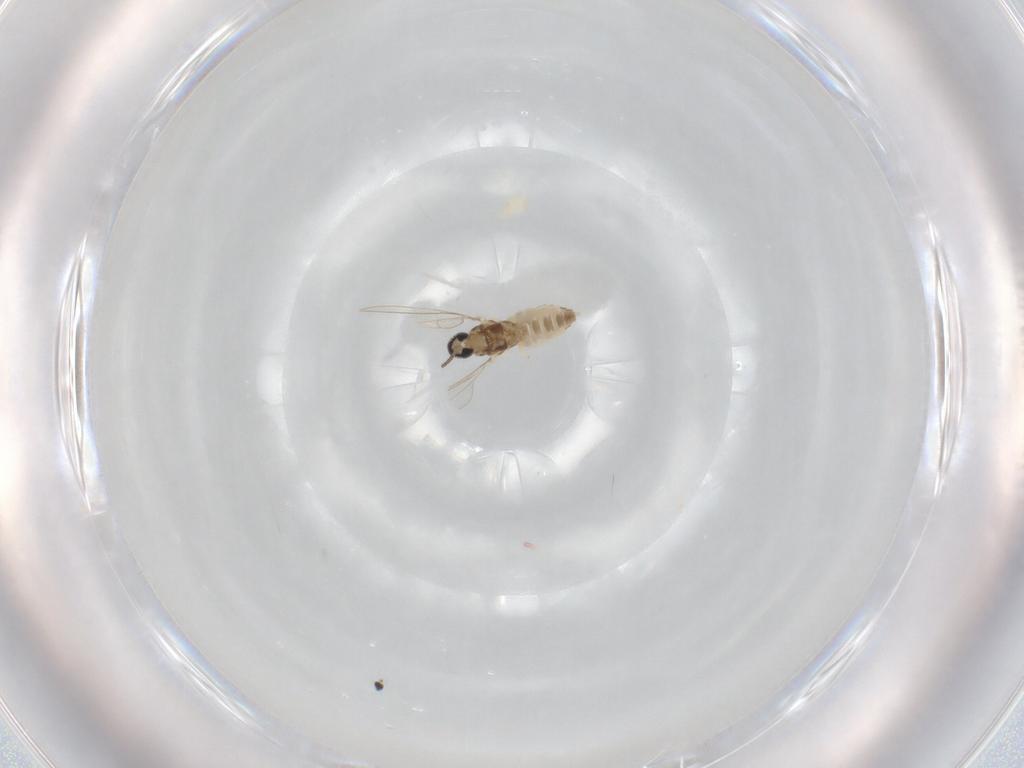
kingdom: Animalia
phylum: Arthropoda
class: Insecta
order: Diptera
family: Cecidomyiidae
